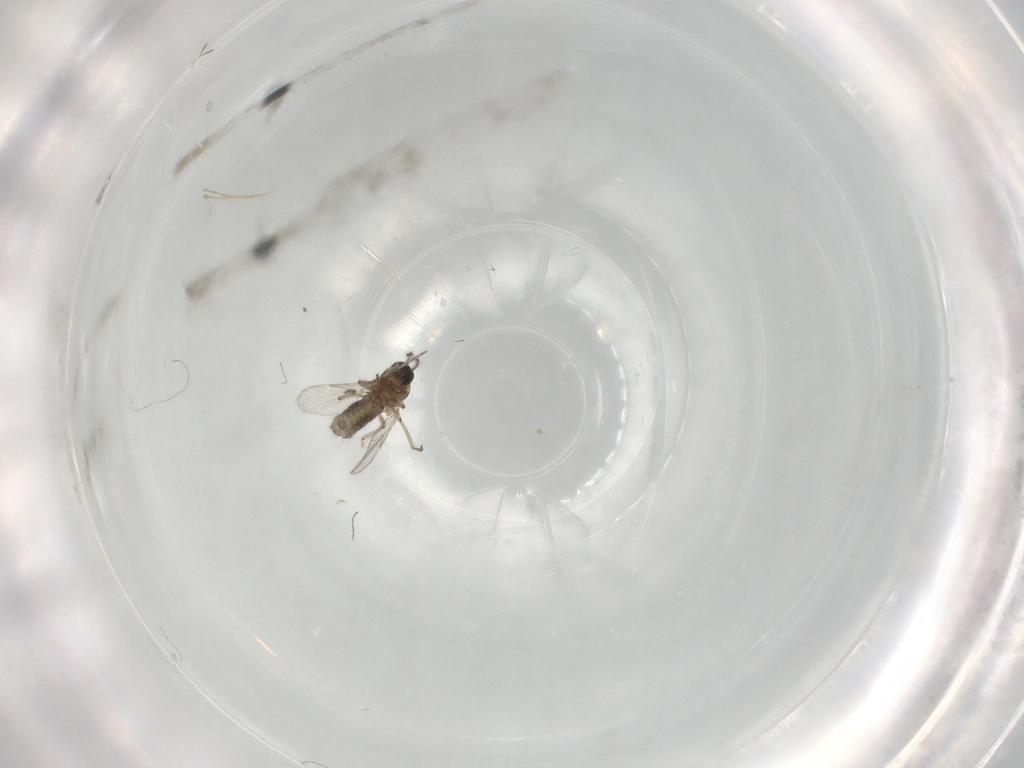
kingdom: Animalia
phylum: Arthropoda
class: Insecta
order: Diptera
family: Ceratopogonidae
